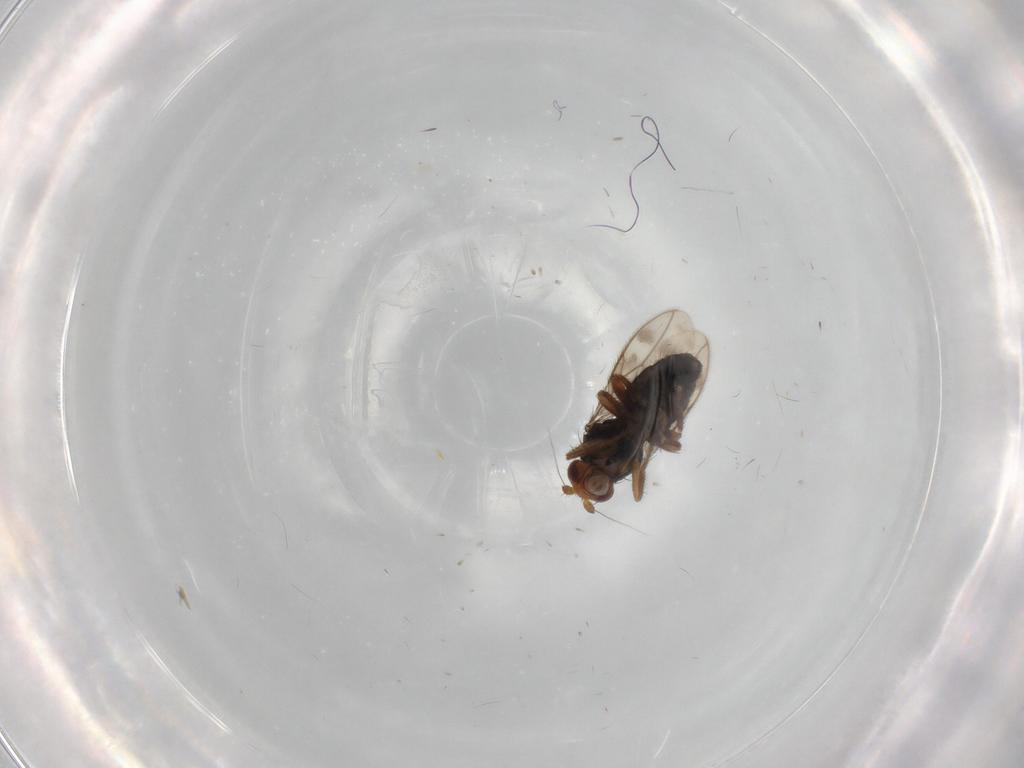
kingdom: Animalia
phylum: Arthropoda
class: Insecta
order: Diptera
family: Sphaeroceridae
